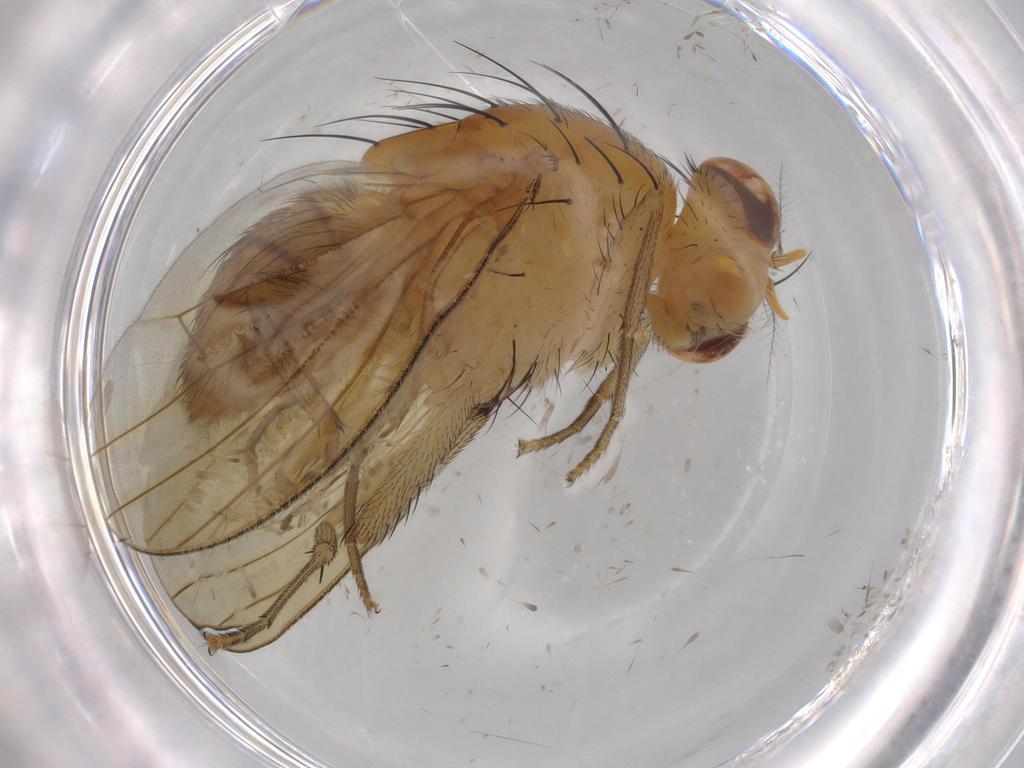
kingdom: Animalia
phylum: Arthropoda
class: Insecta
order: Diptera
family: Lauxaniidae
